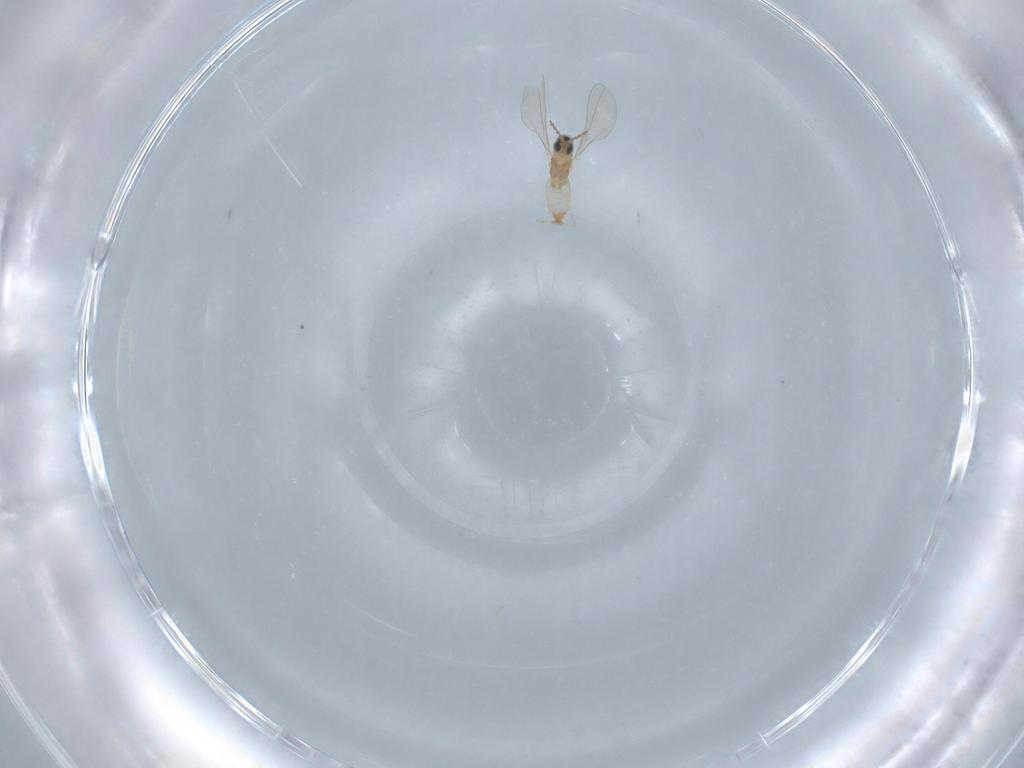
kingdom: Animalia
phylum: Arthropoda
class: Insecta
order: Diptera
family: Cecidomyiidae
